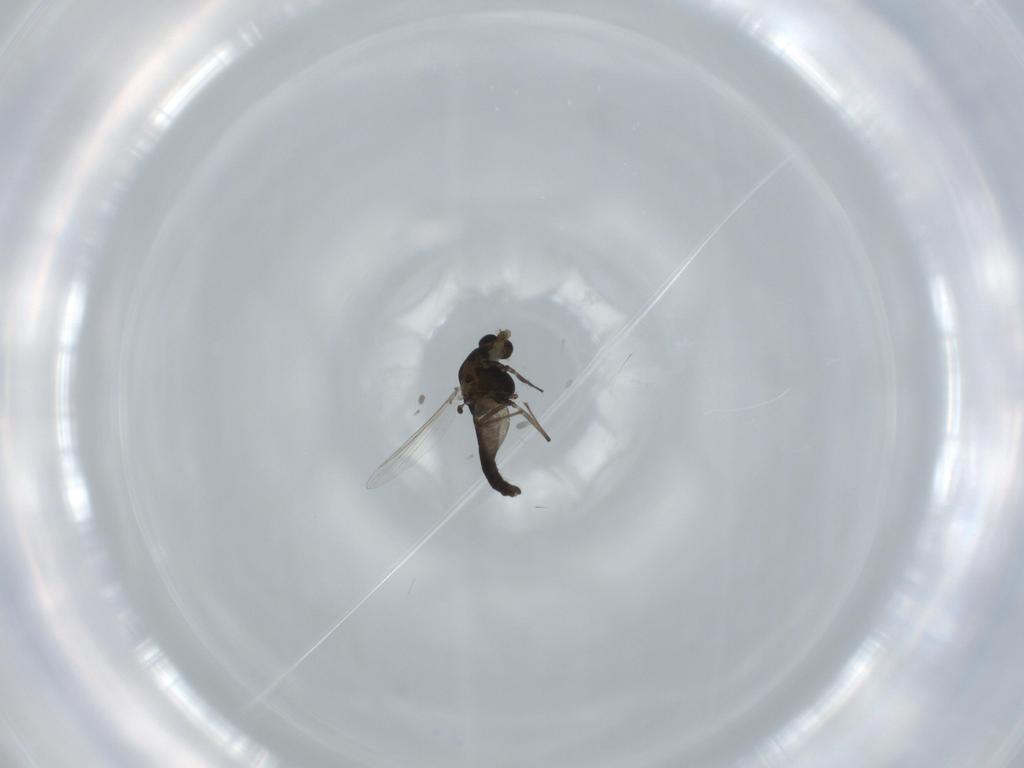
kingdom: Animalia
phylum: Arthropoda
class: Insecta
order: Diptera
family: Chironomidae
